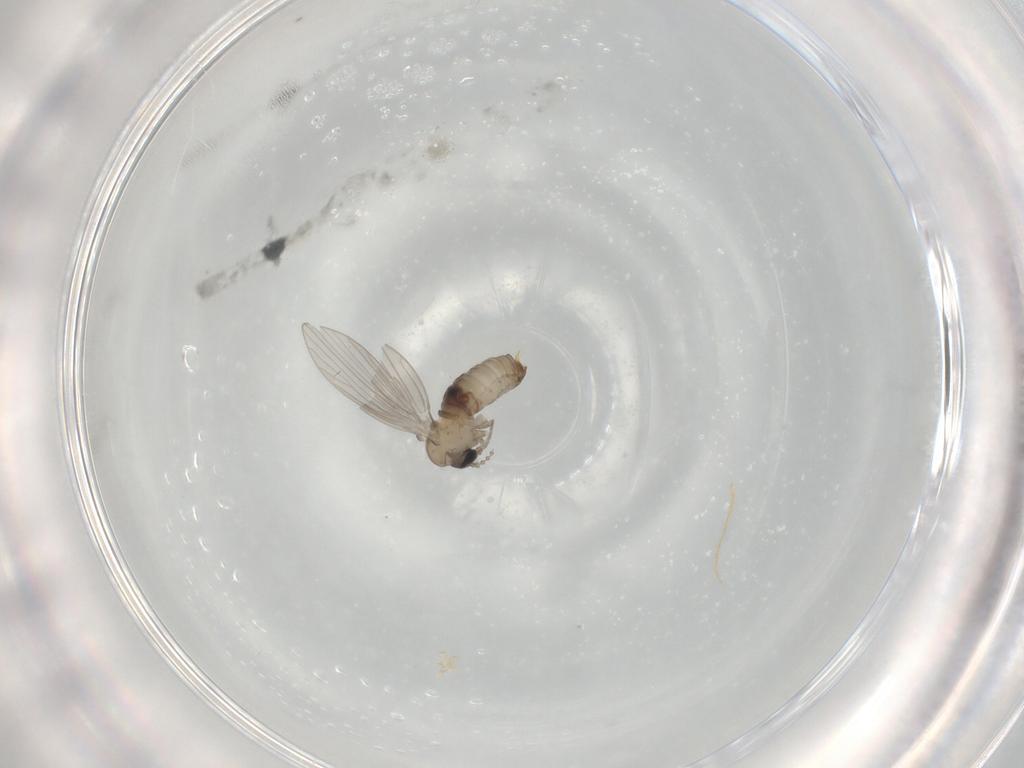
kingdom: Animalia
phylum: Arthropoda
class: Insecta
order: Diptera
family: Psychodidae
